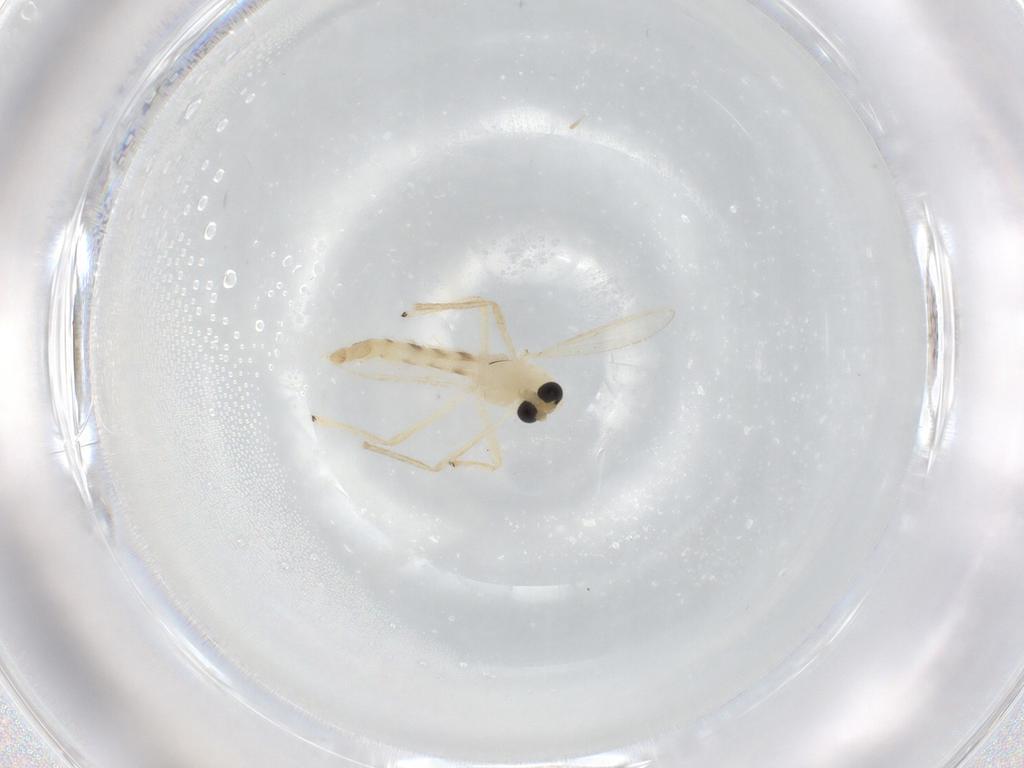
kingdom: Animalia
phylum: Arthropoda
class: Insecta
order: Diptera
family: Chironomidae
